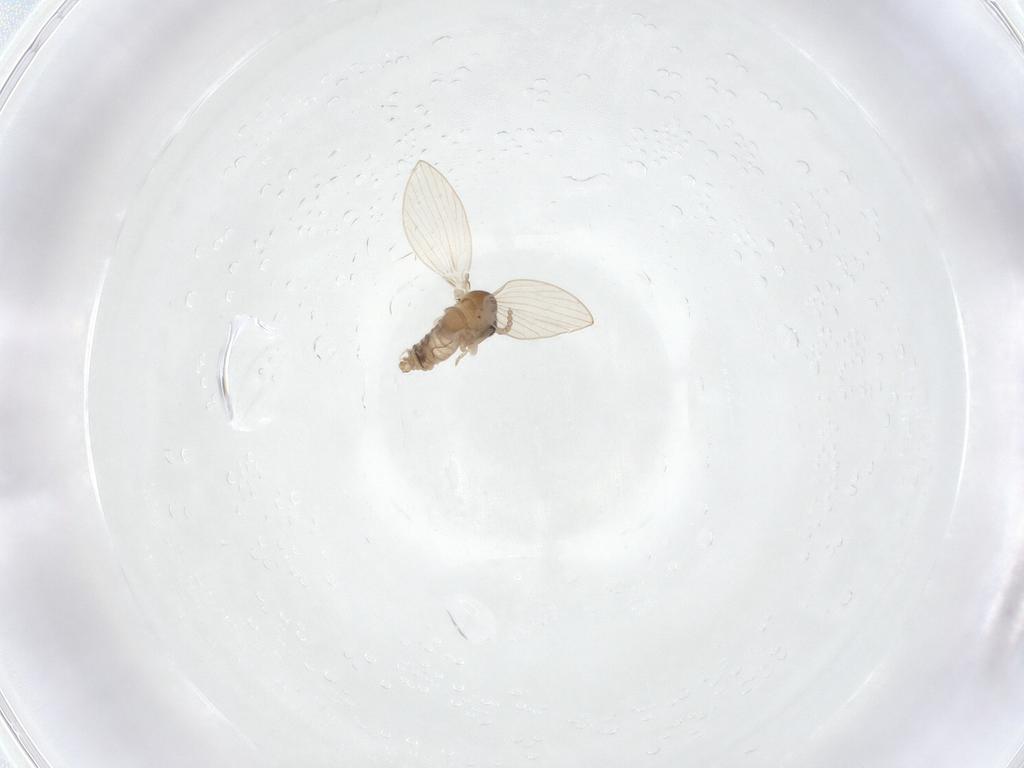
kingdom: Animalia
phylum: Arthropoda
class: Insecta
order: Diptera
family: Psychodidae
